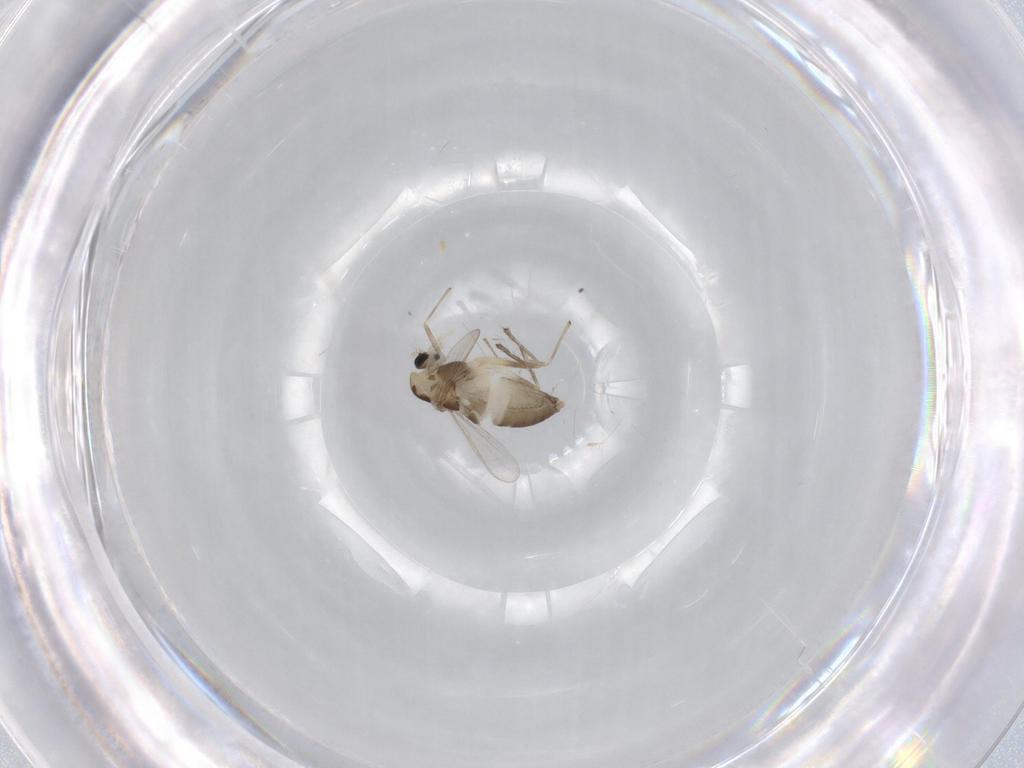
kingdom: Animalia
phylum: Arthropoda
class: Insecta
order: Diptera
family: Chironomidae
